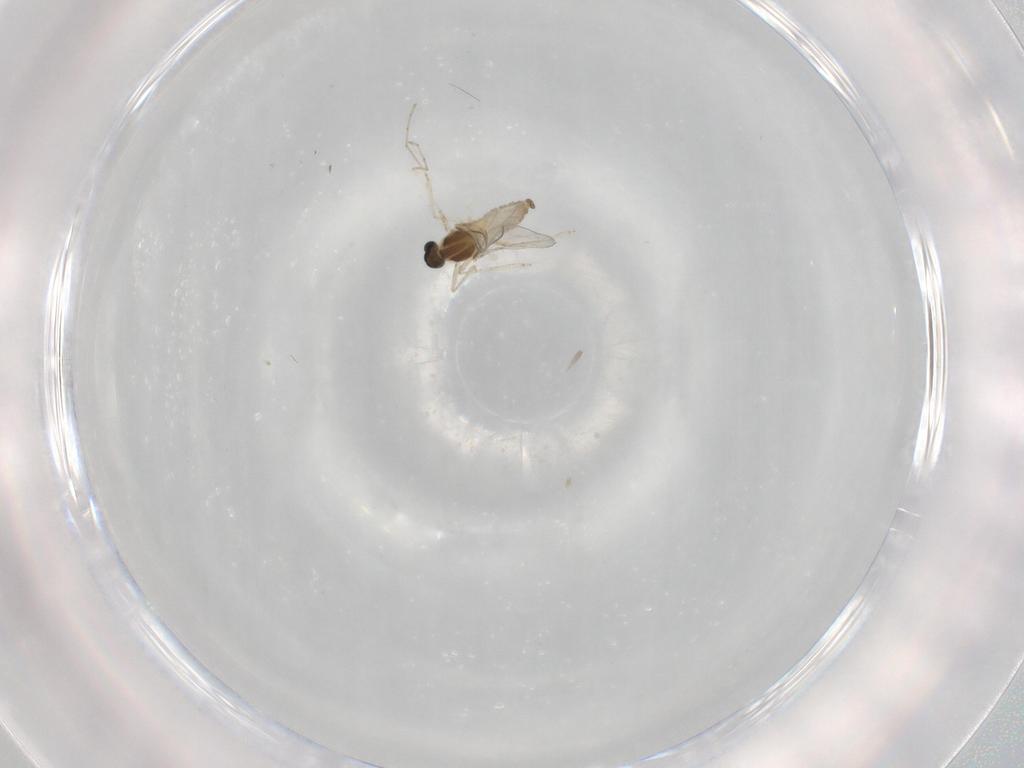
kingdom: Animalia
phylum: Arthropoda
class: Insecta
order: Diptera
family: Cecidomyiidae
